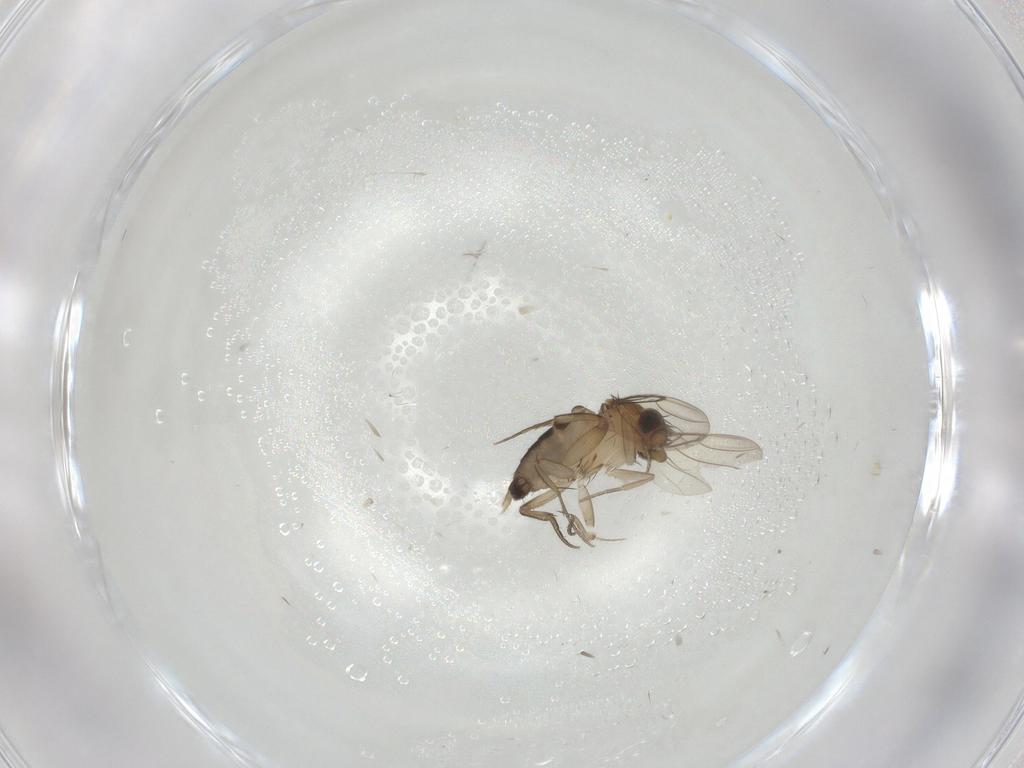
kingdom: Animalia
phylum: Arthropoda
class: Insecta
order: Diptera
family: Phoridae
